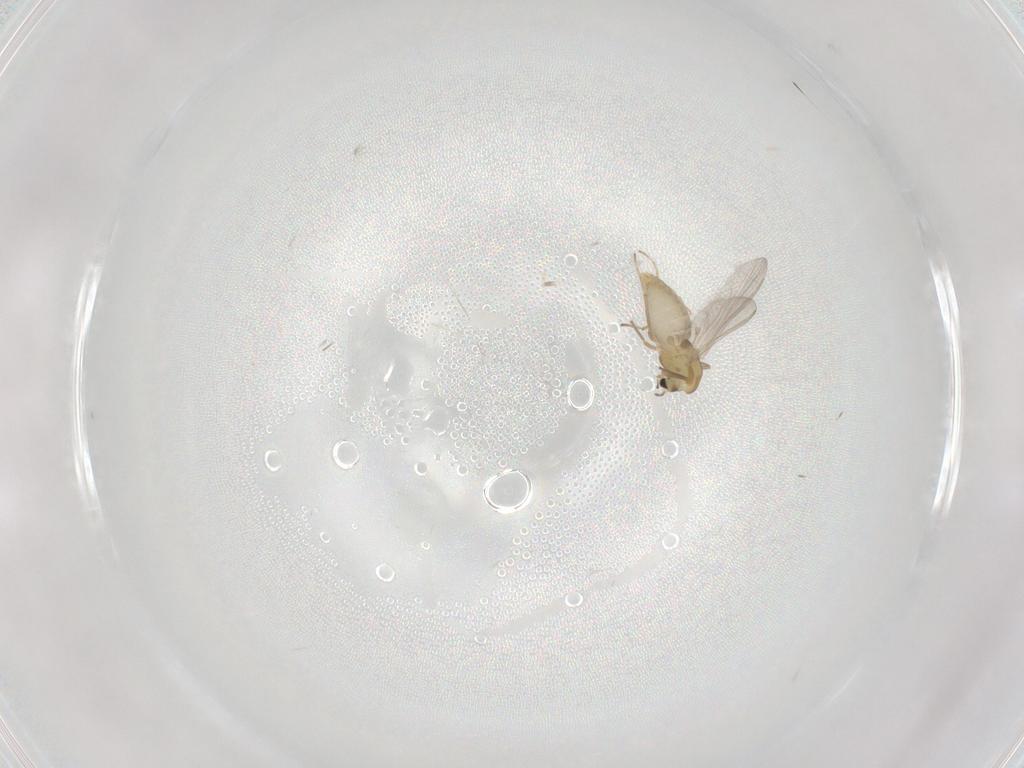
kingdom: Animalia
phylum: Arthropoda
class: Insecta
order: Diptera
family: Chironomidae
